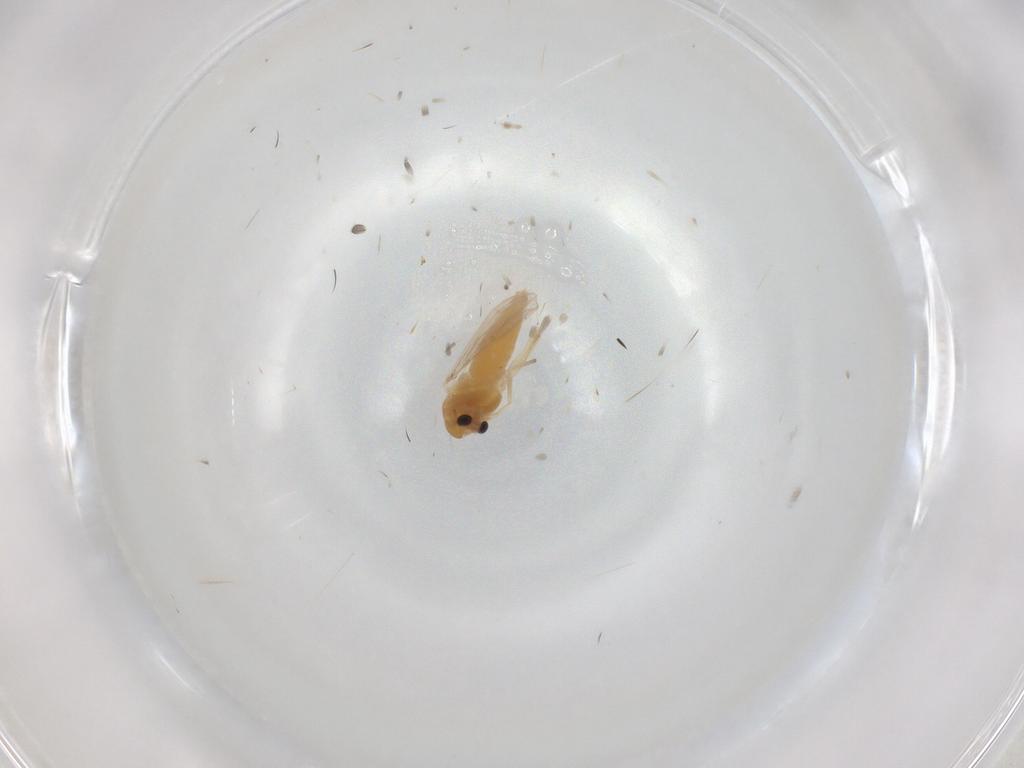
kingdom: Animalia
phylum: Arthropoda
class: Insecta
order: Diptera
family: Chironomidae
